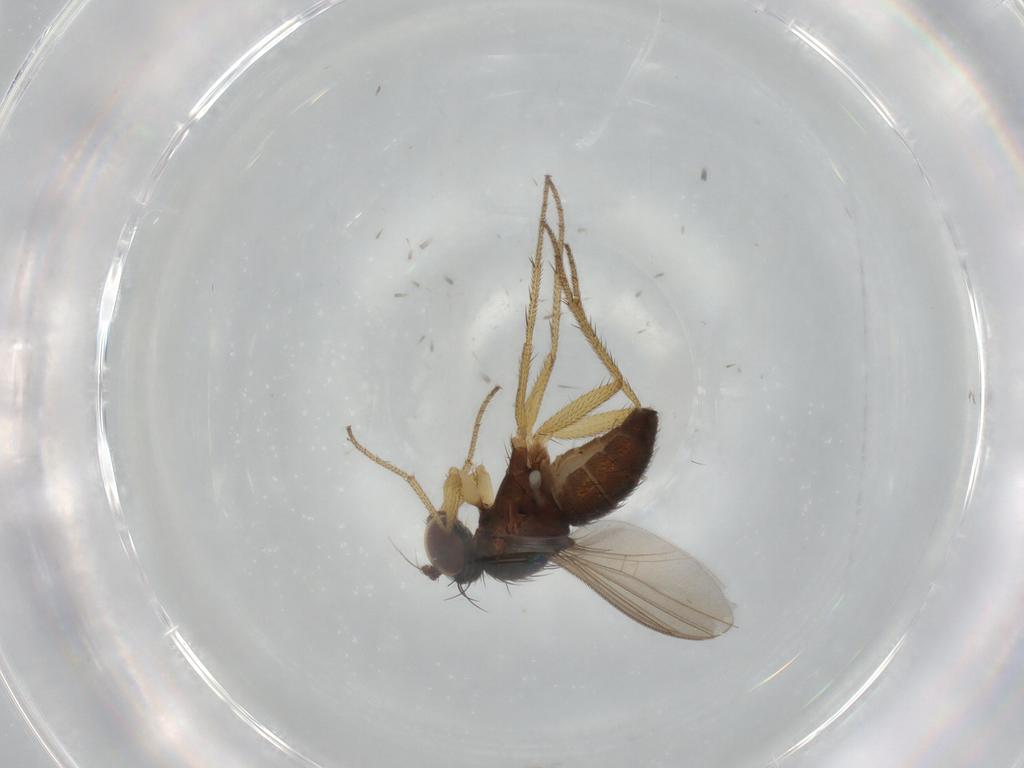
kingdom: Animalia
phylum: Arthropoda
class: Insecta
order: Diptera
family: Dolichopodidae
